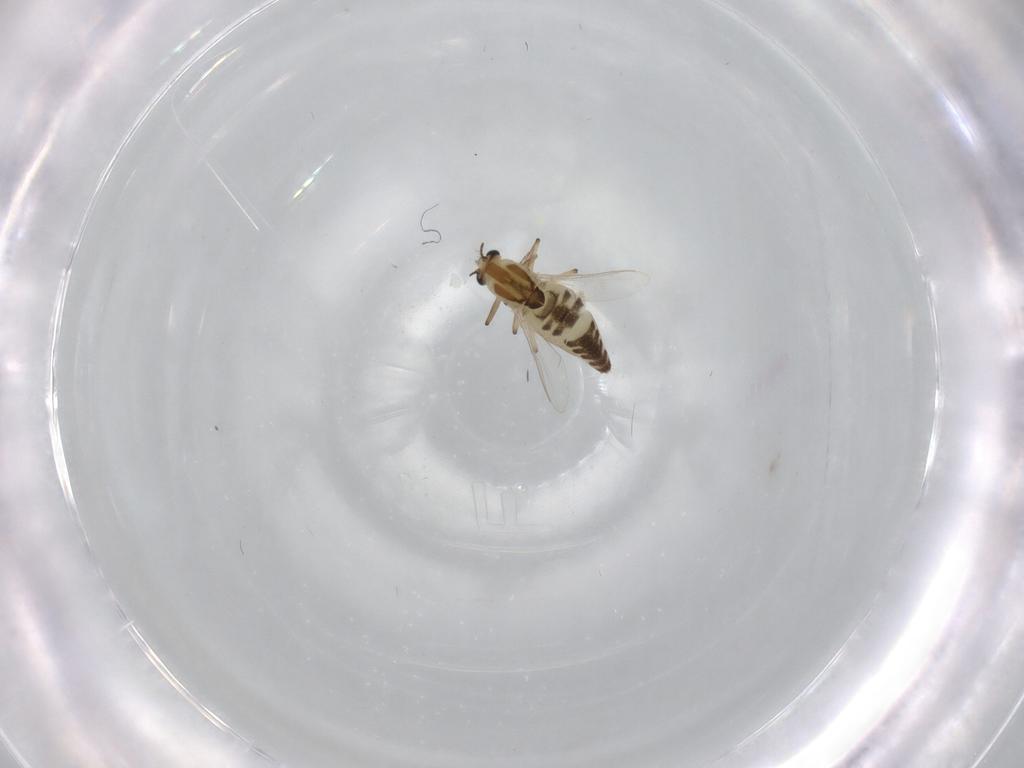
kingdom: Animalia
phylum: Arthropoda
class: Insecta
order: Diptera
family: Chironomidae
